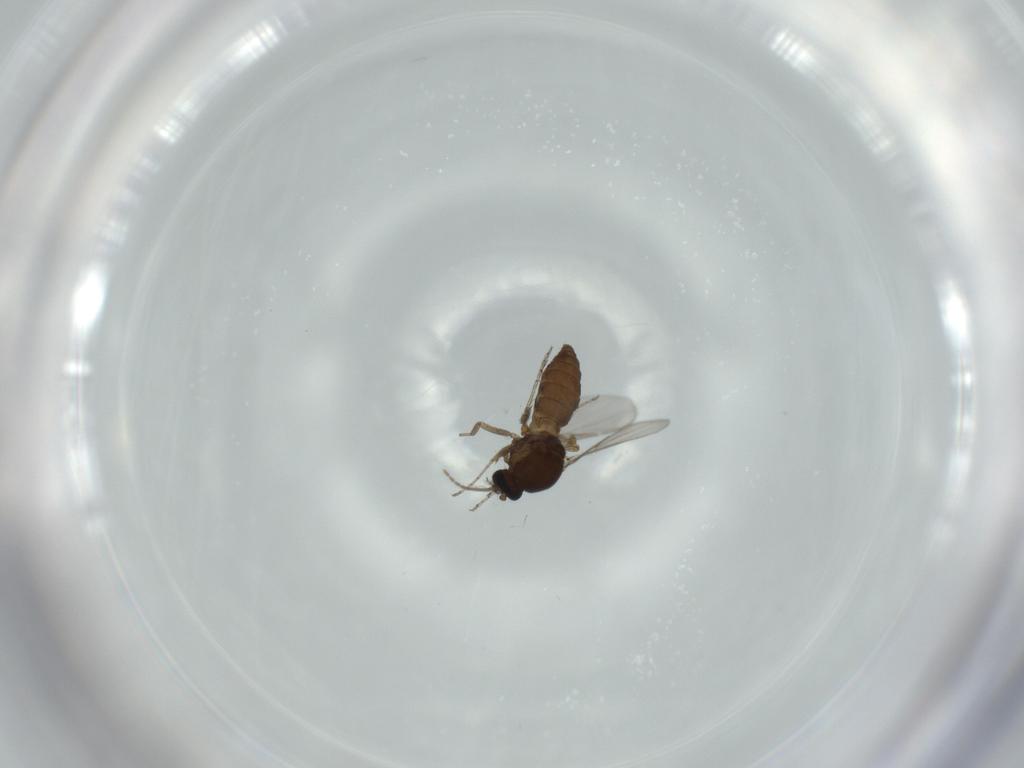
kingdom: Animalia
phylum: Arthropoda
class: Insecta
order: Diptera
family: Ceratopogonidae
